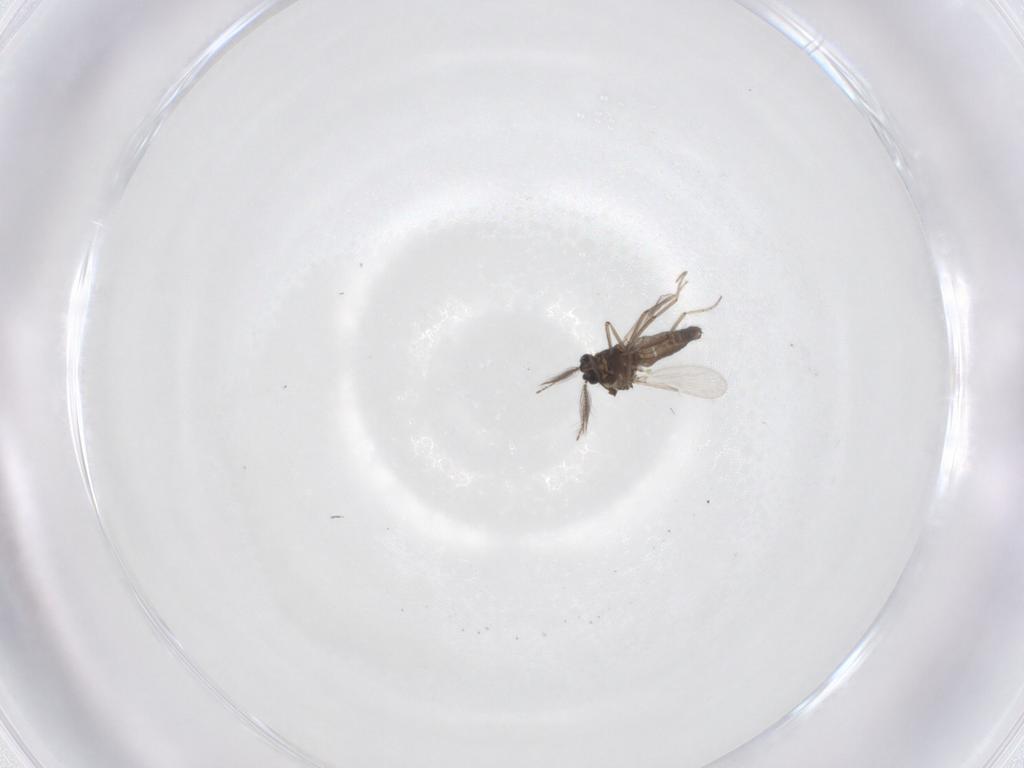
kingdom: Animalia
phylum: Arthropoda
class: Insecta
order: Diptera
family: Ceratopogonidae
